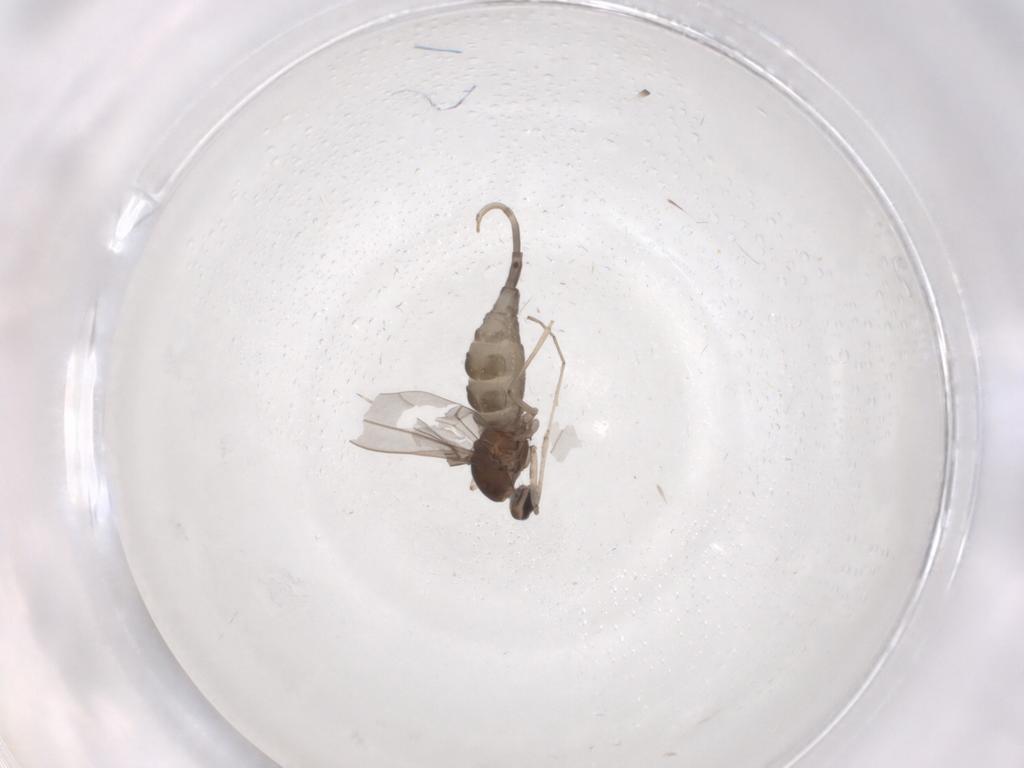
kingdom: Animalia
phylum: Arthropoda
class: Insecta
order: Diptera
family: Cecidomyiidae
